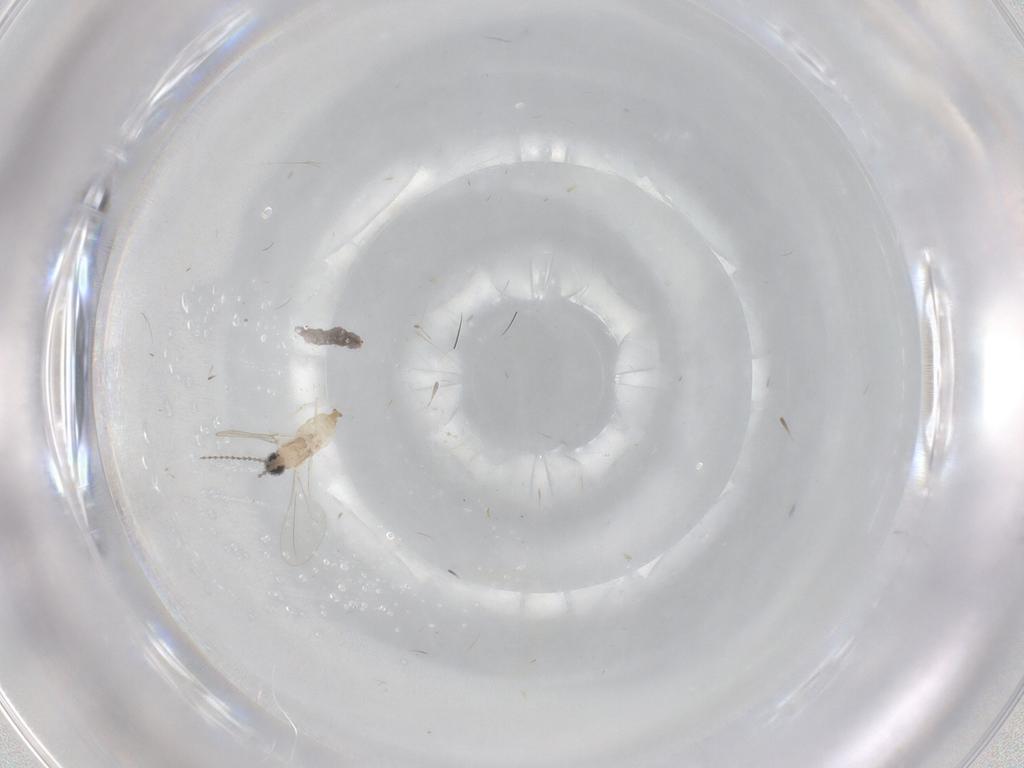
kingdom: Animalia
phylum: Arthropoda
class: Insecta
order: Diptera
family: Cecidomyiidae
